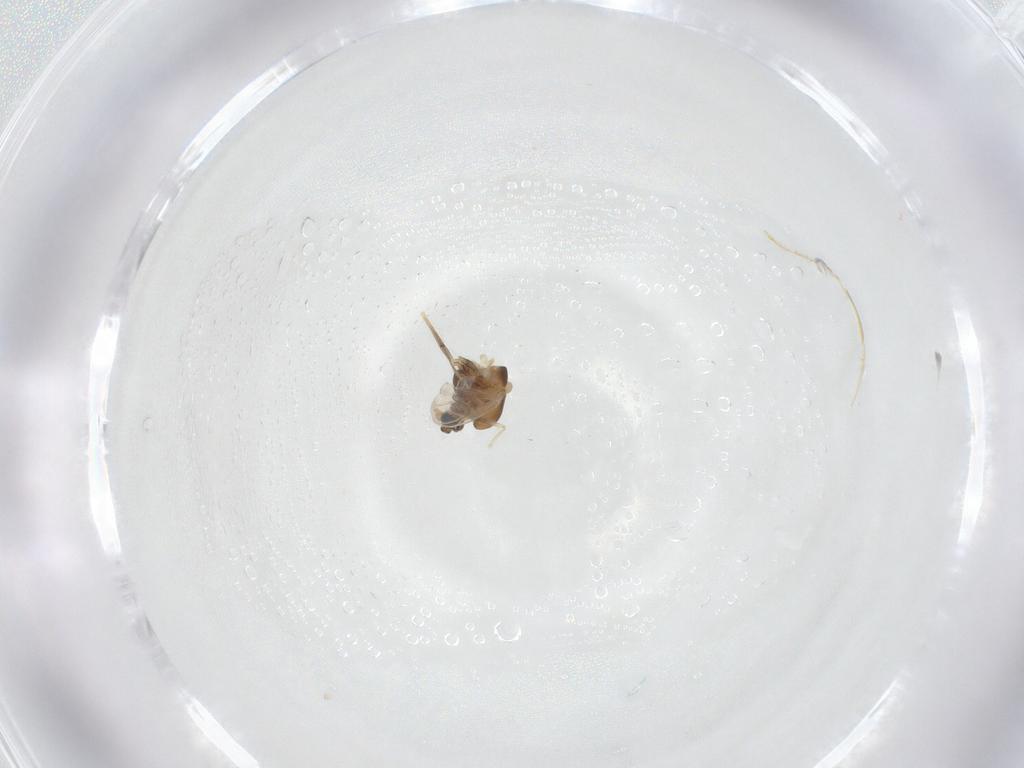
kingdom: Animalia
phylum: Arthropoda
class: Insecta
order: Diptera
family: Chironomidae
